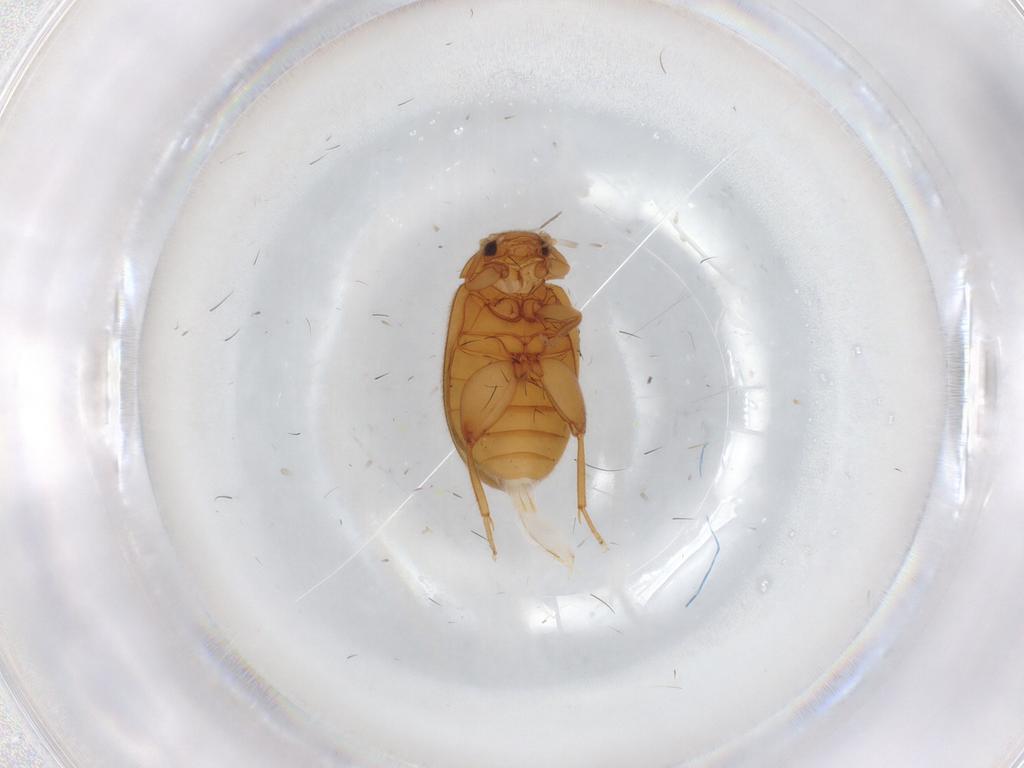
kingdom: Animalia
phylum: Arthropoda
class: Insecta
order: Coleoptera
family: Scirtidae
